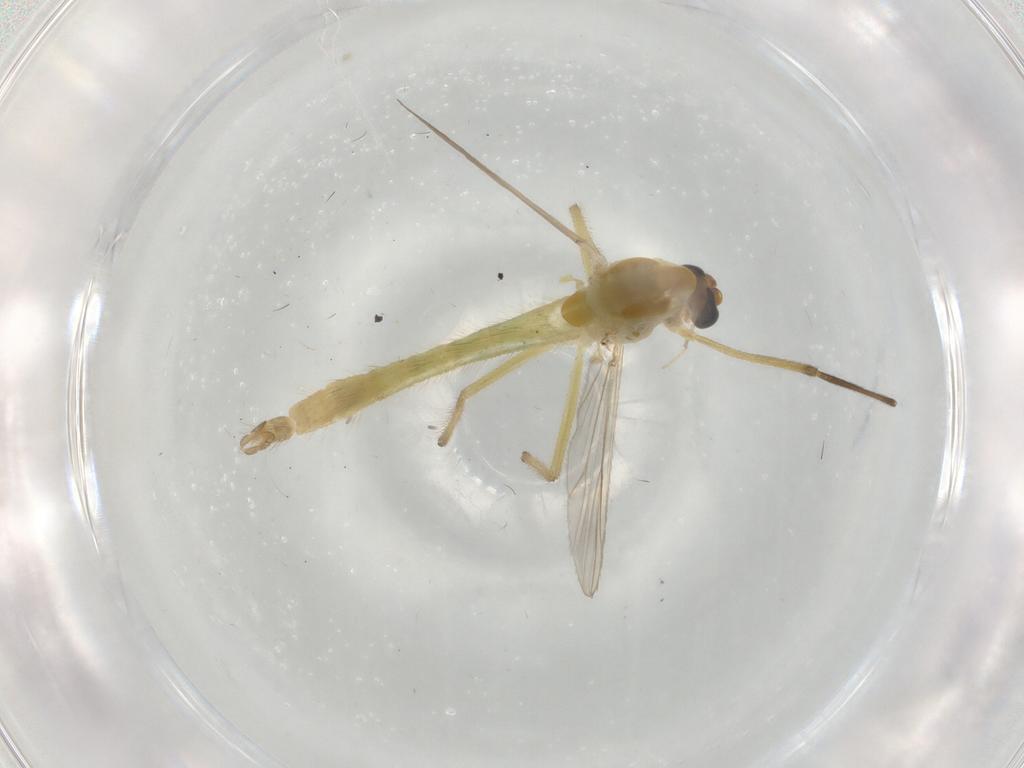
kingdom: Animalia
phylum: Arthropoda
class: Insecta
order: Diptera
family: Chironomidae
